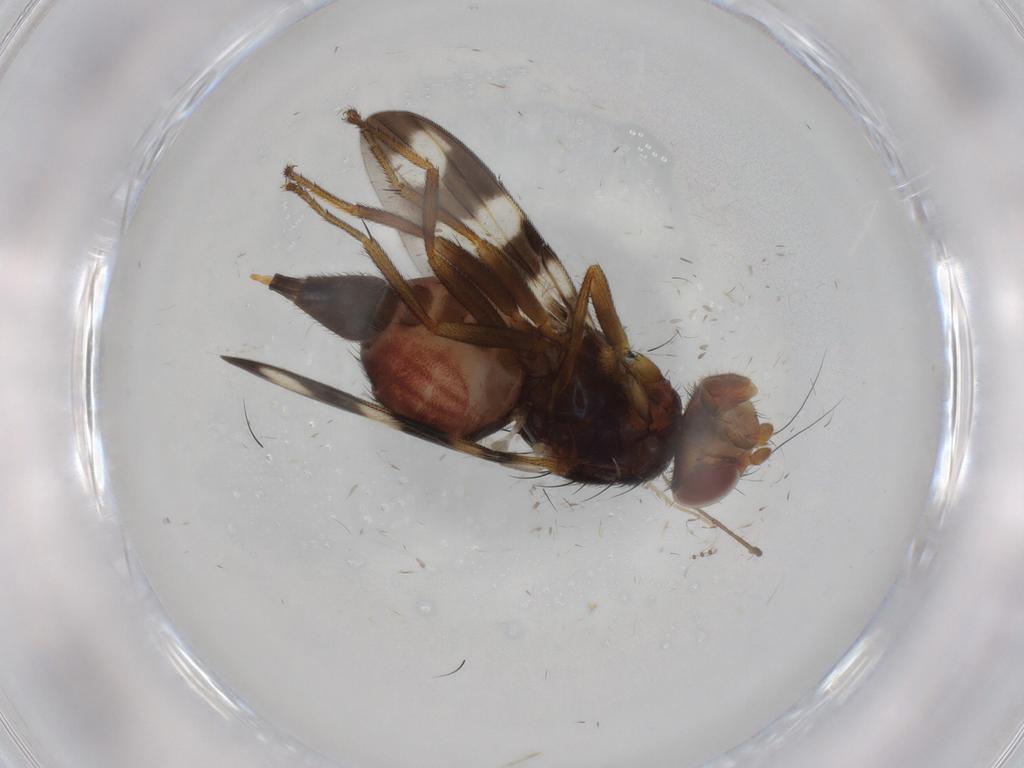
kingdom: Animalia
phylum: Arthropoda
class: Insecta
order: Diptera
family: Chironomidae
